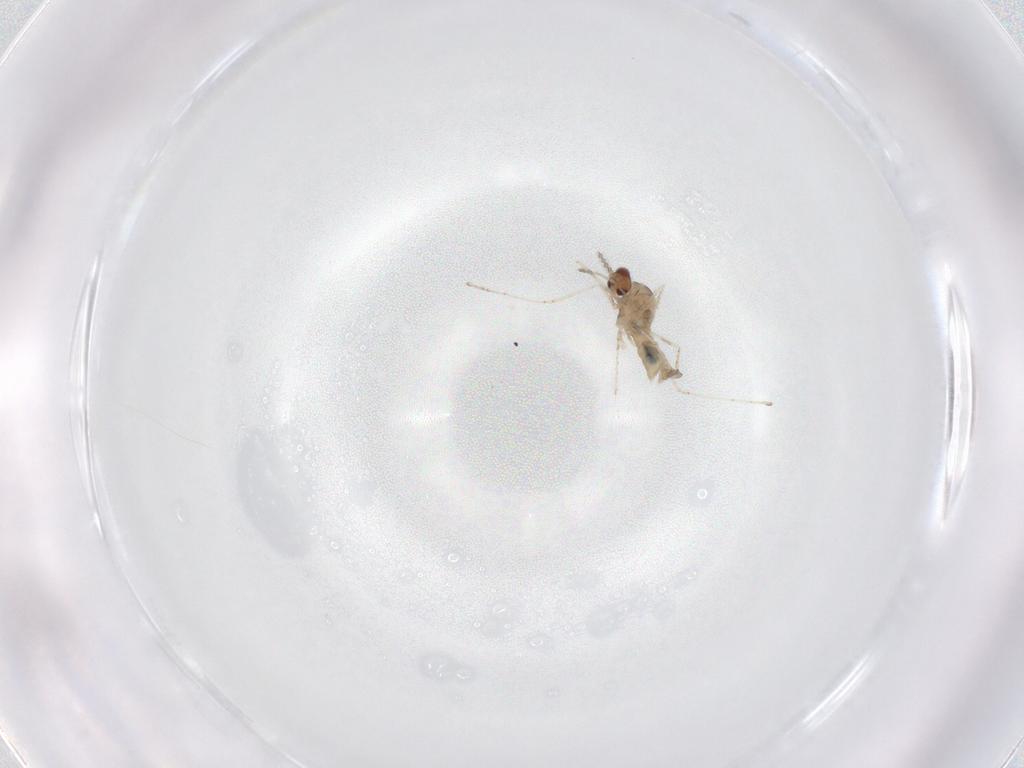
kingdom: Animalia
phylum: Arthropoda
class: Insecta
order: Diptera
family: Cecidomyiidae
